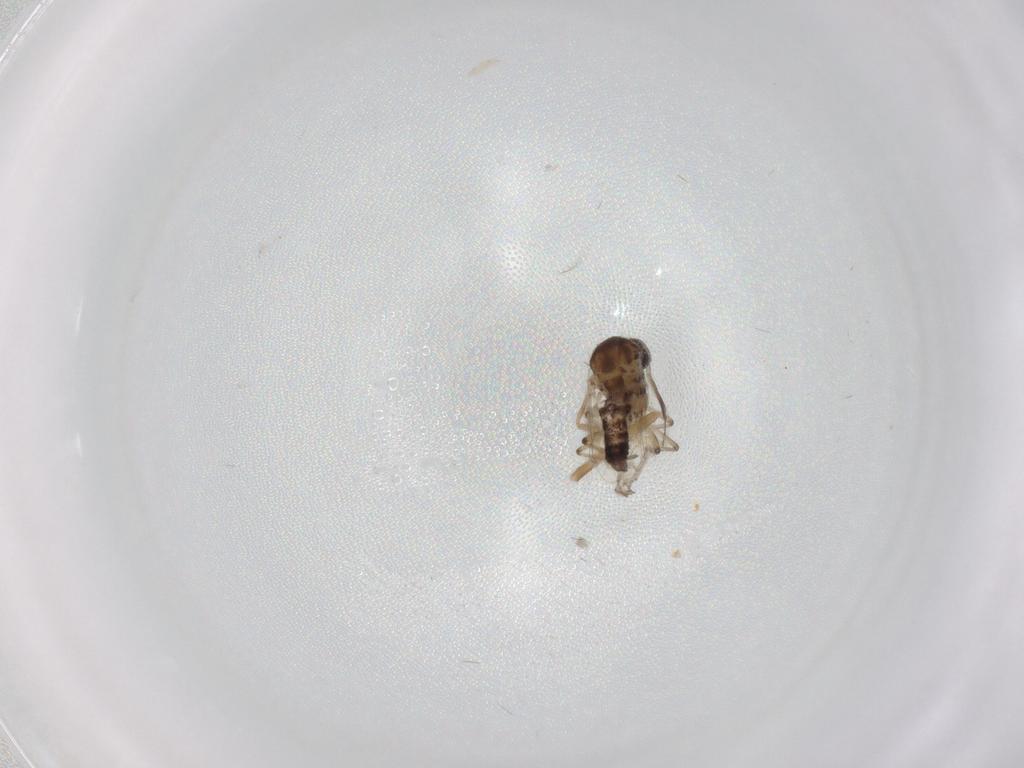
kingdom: Animalia
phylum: Arthropoda
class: Insecta
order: Diptera
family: Ceratopogonidae
